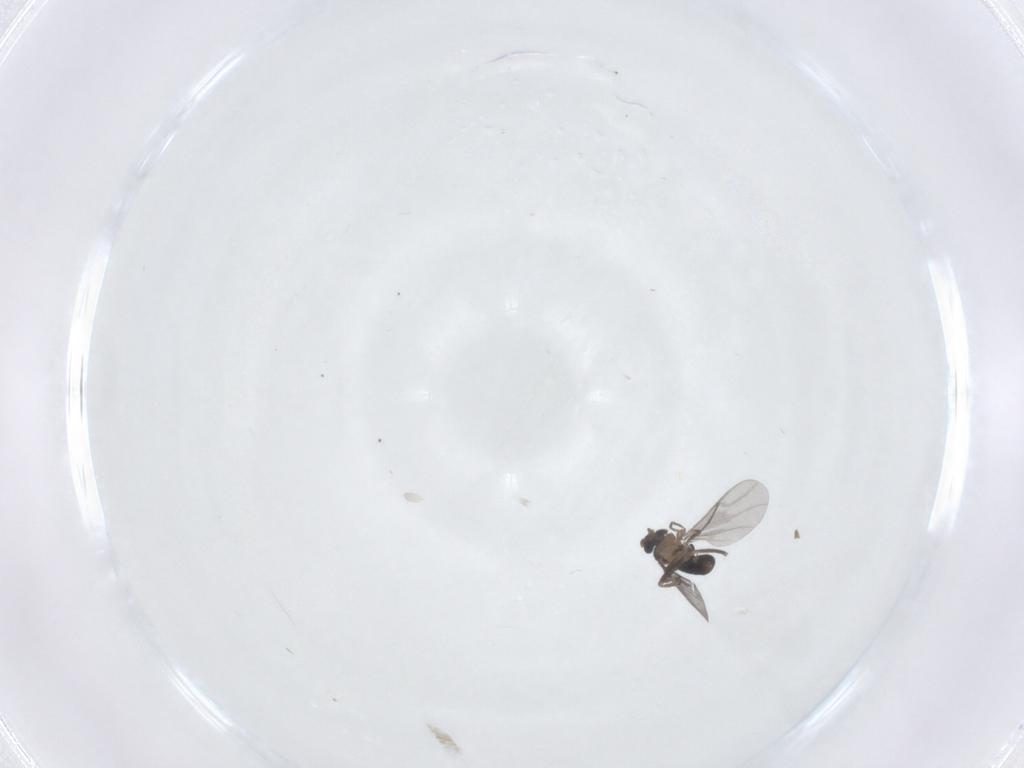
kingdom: Animalia
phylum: Arthropoda
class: Insecta
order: Diptera
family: Phoridae
